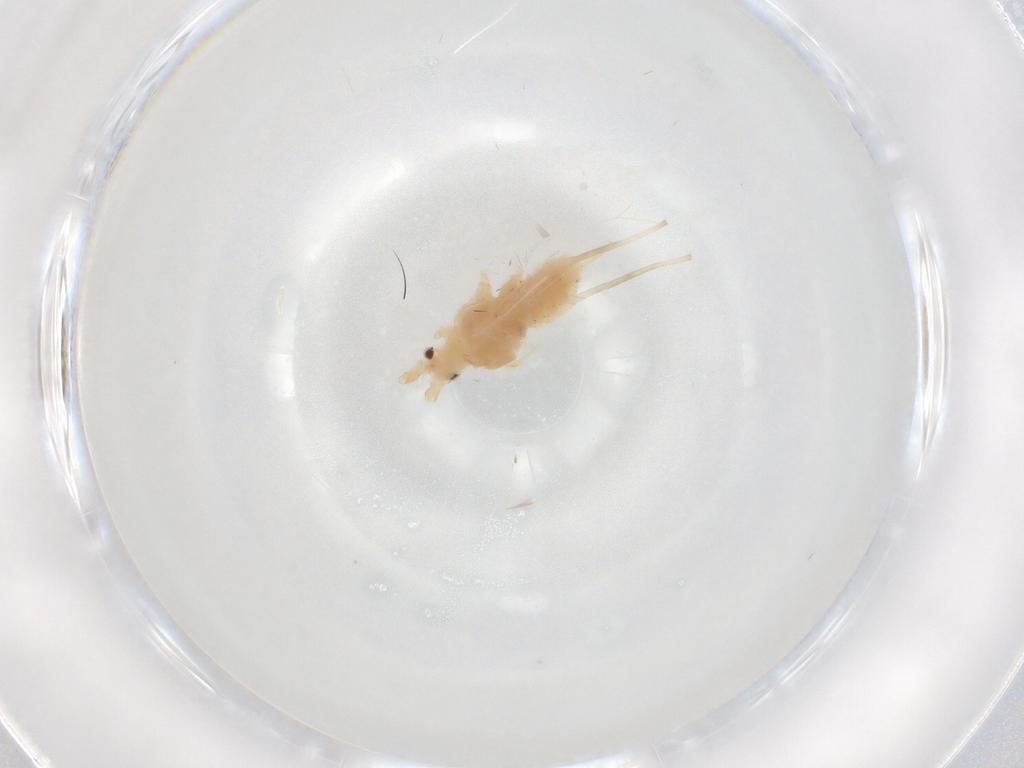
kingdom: Animalia
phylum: Arthropoda
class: Insecta
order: Hemiptera
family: Aphididae
